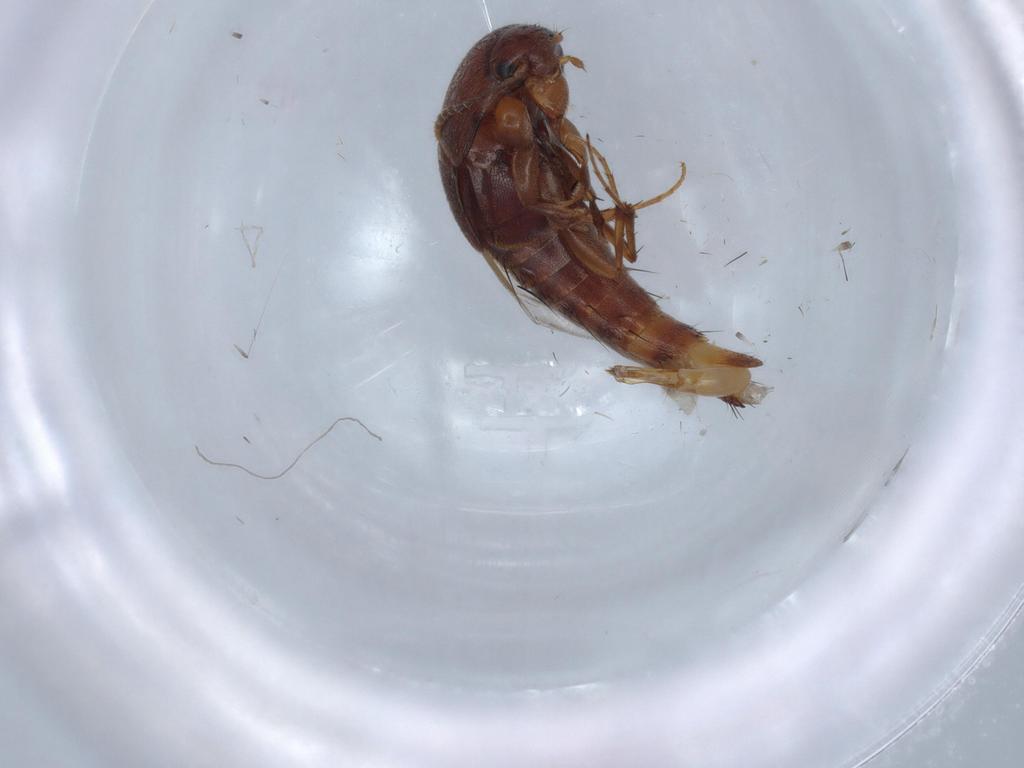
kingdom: Animalia
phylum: Arthropoda
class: Insecta
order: Coleoptera
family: Staphylinidae
